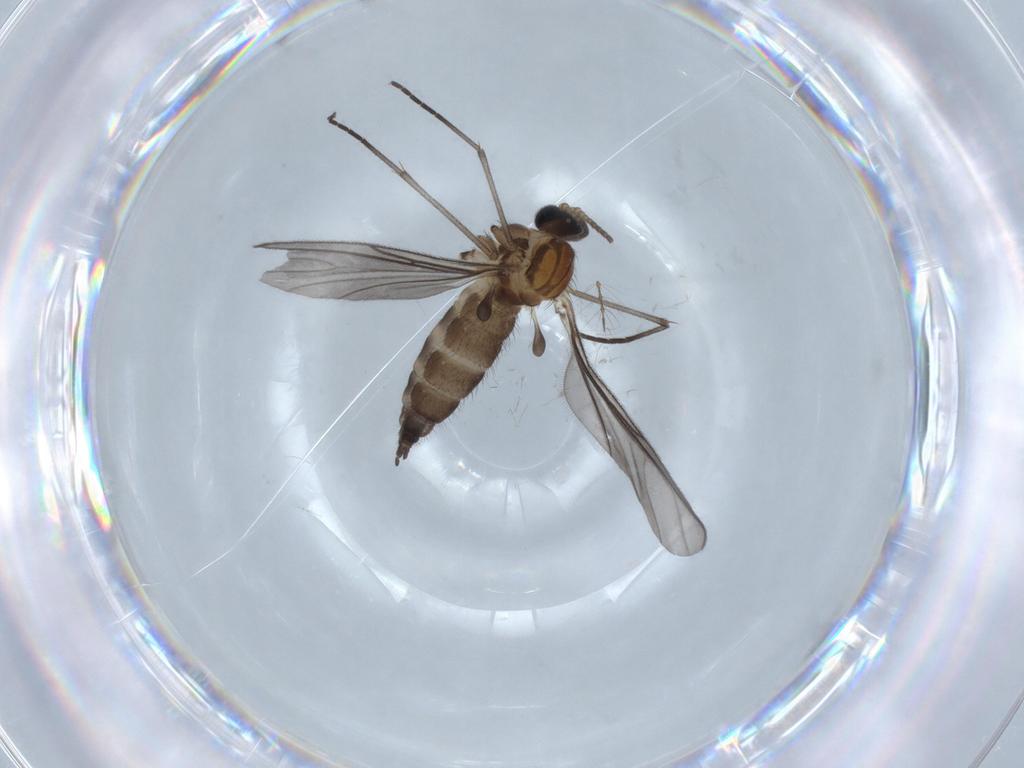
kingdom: Animalia
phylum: Arthropoda
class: Insecta
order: Diptera
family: Sciaridae
